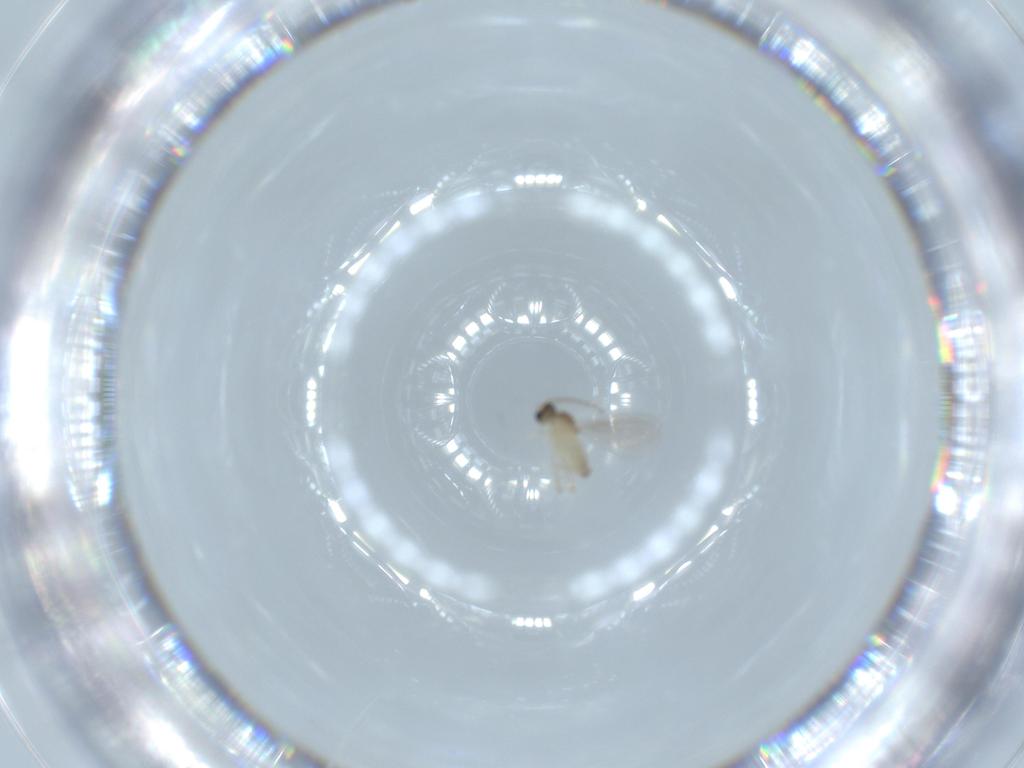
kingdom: Animalia
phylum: Arthropoda
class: Insecta
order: Diptera
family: Cecidomyiidae
